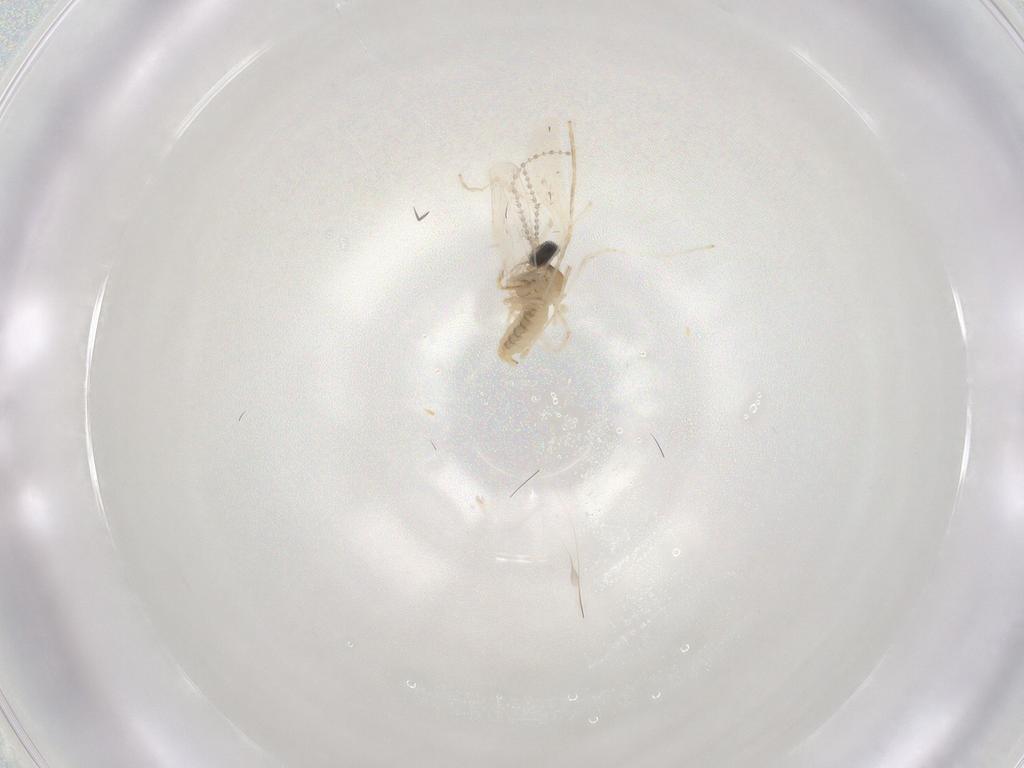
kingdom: Animalia
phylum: Arthropoda
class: Insecta
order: Diptera
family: Cecidomyiidae
